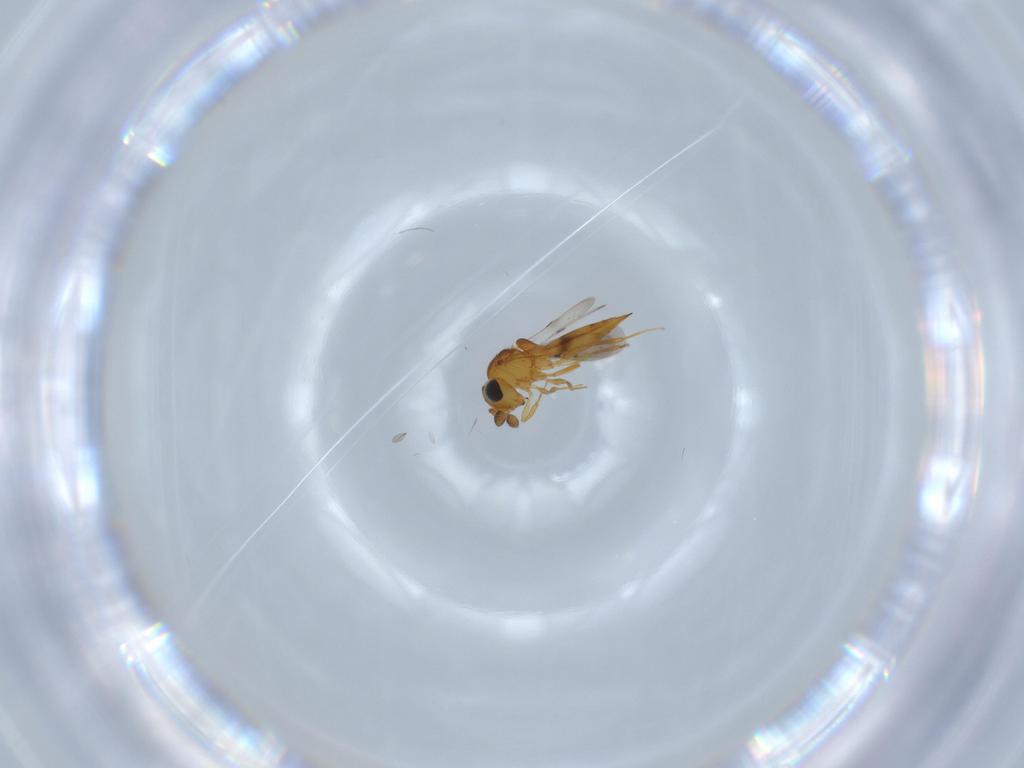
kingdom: Animalia
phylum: Arthropoda
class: Insecta
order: Hymenoptera
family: Scelionidae
